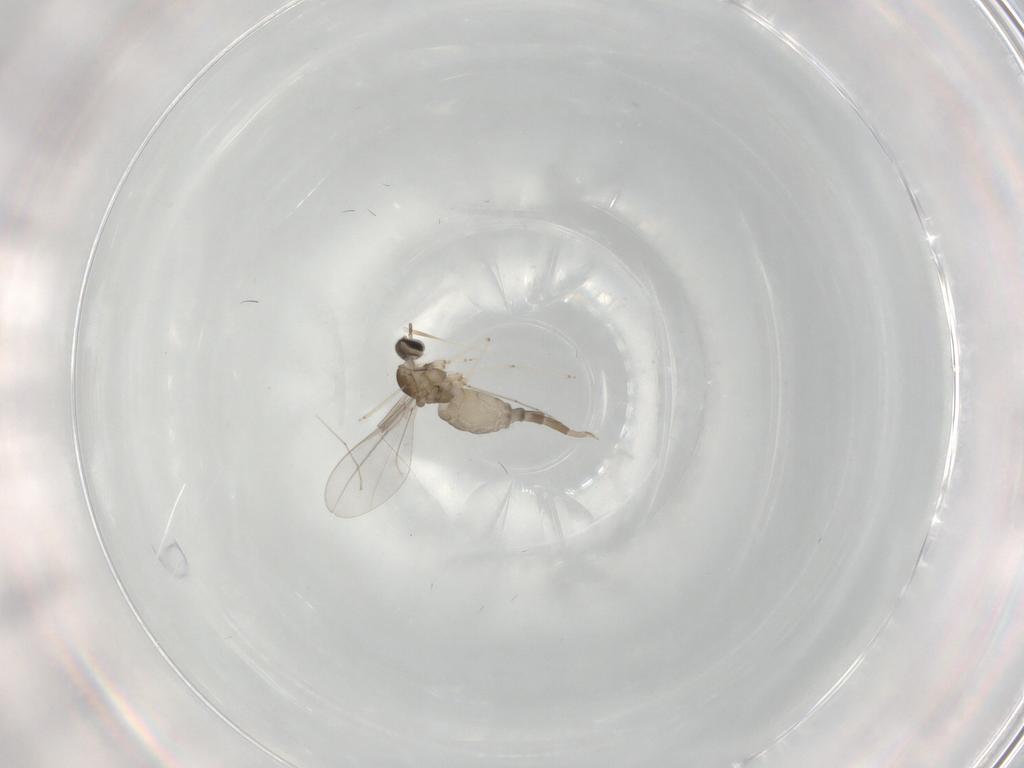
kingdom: Animalia
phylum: Arthropoda
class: Insecta
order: Diptera
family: Cecidomyiidae
